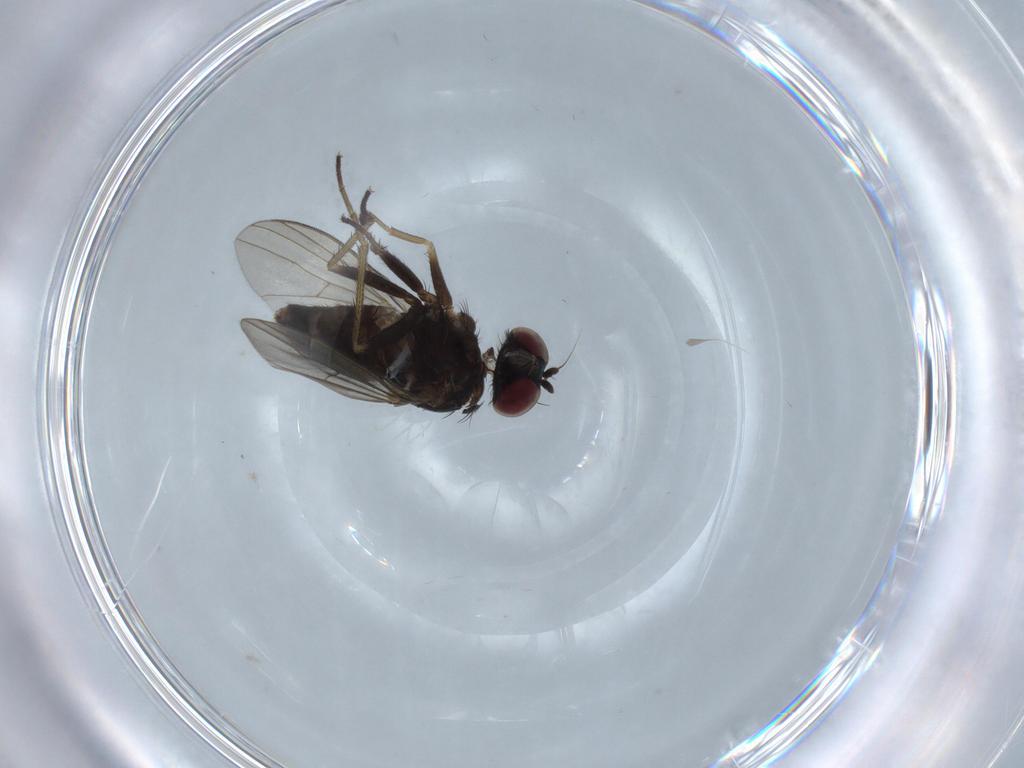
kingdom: Animalia
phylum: Arthropoda
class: Insecta
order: Diptera
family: Dolichopodidae
